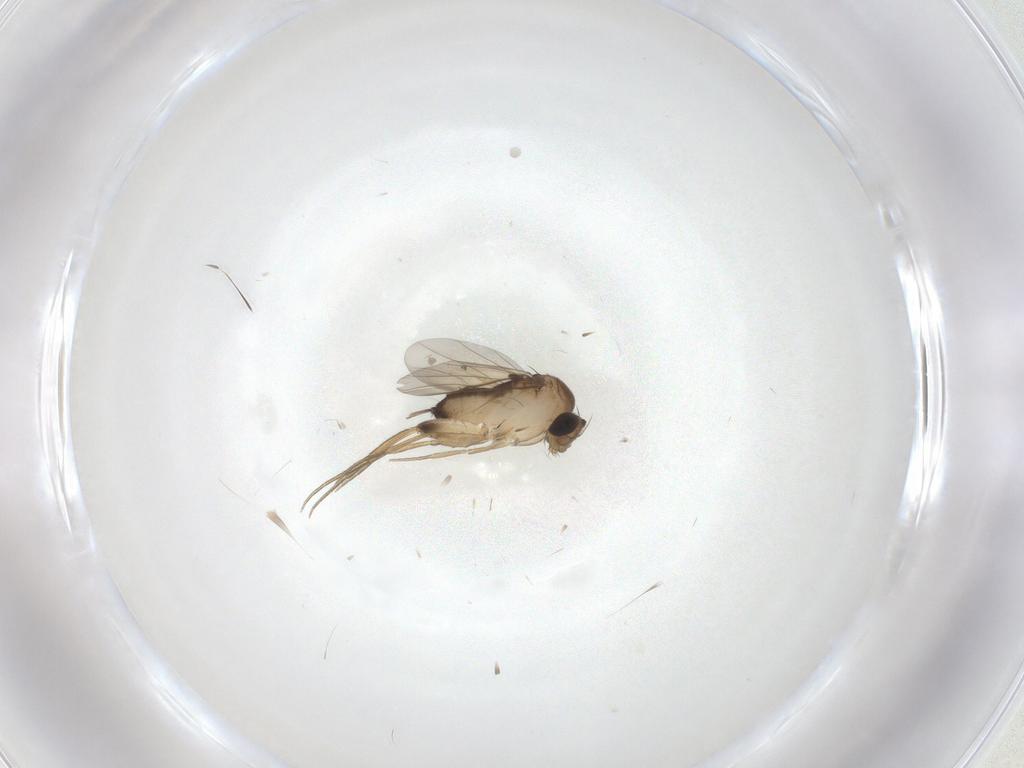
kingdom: Animalia
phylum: Arthropoda
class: Insecta
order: Diptera
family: Phoridae
